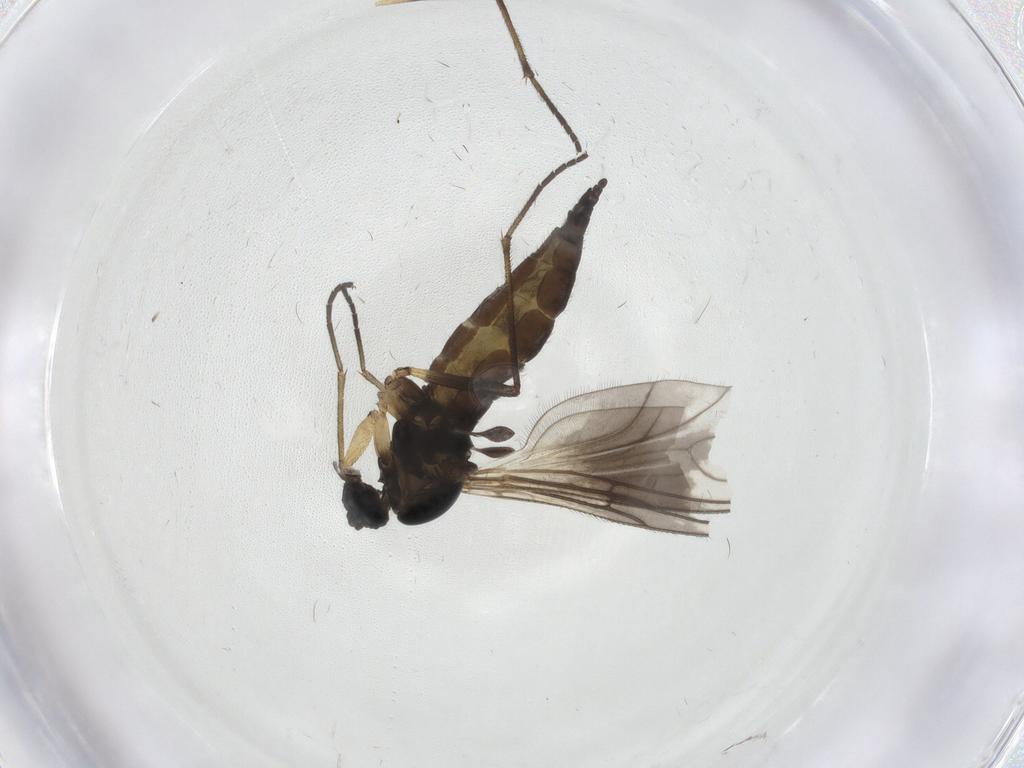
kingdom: Animalia
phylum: Arthropoda
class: Insecta
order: Diptera
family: Sciaridae
